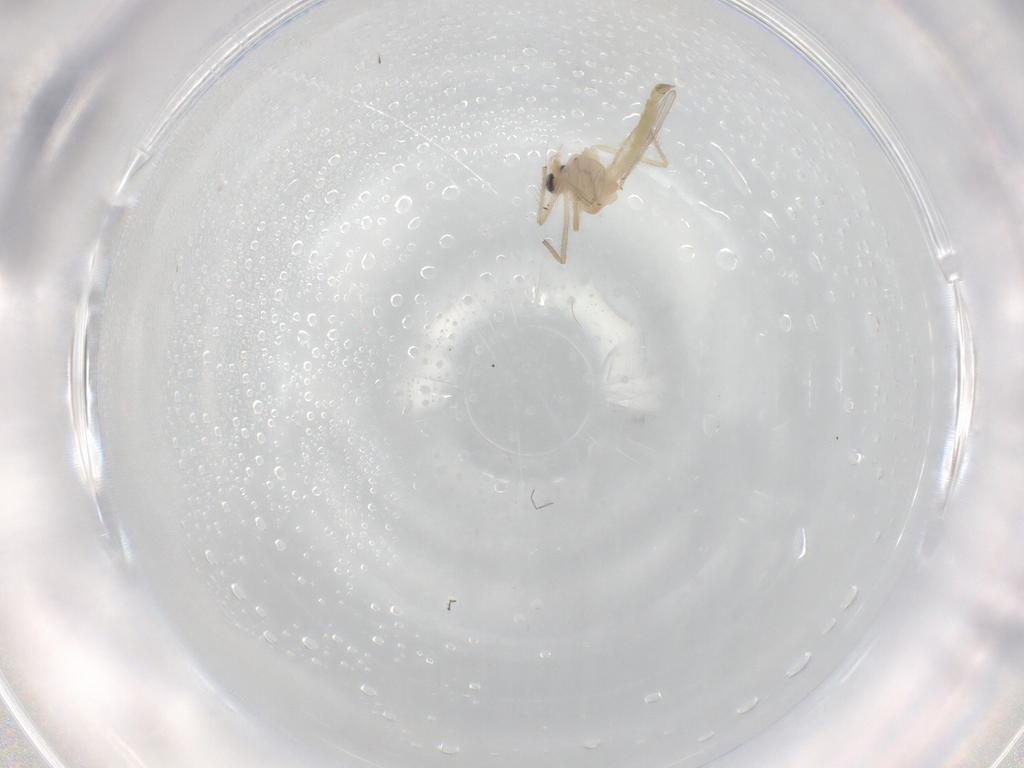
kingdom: Animalia
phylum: Arthropoda
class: Insecta
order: Diptera
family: Chironomidae
